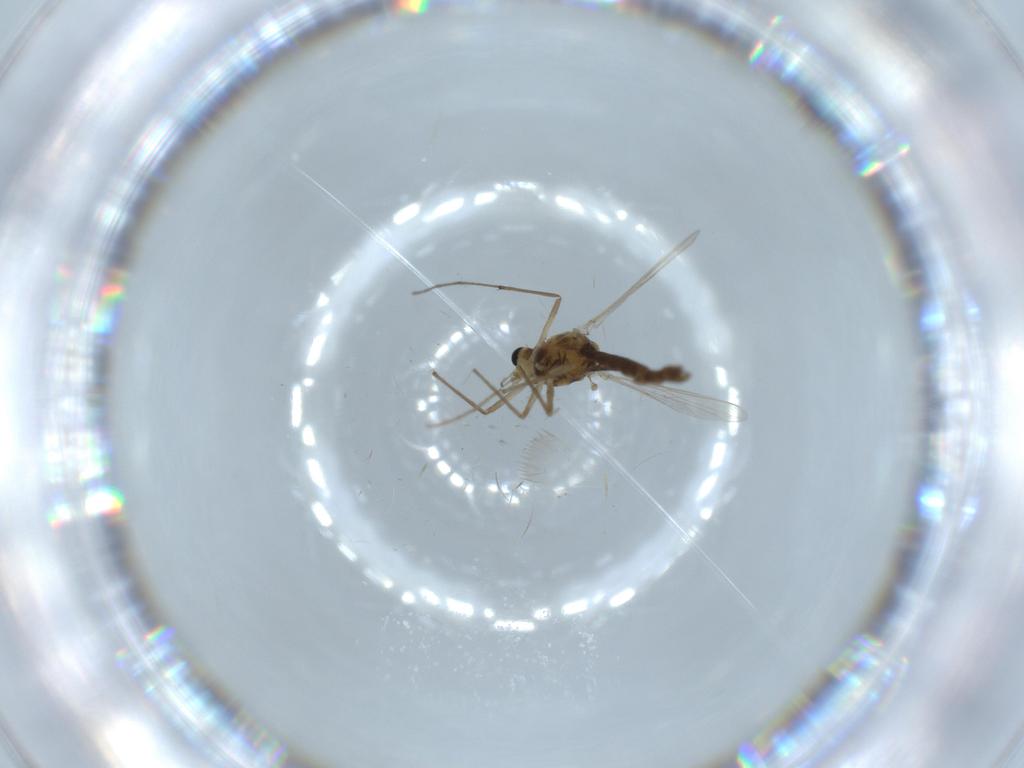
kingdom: Animalia
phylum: Arthropoda
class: Insecta
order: Diptera
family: Chironomidae
